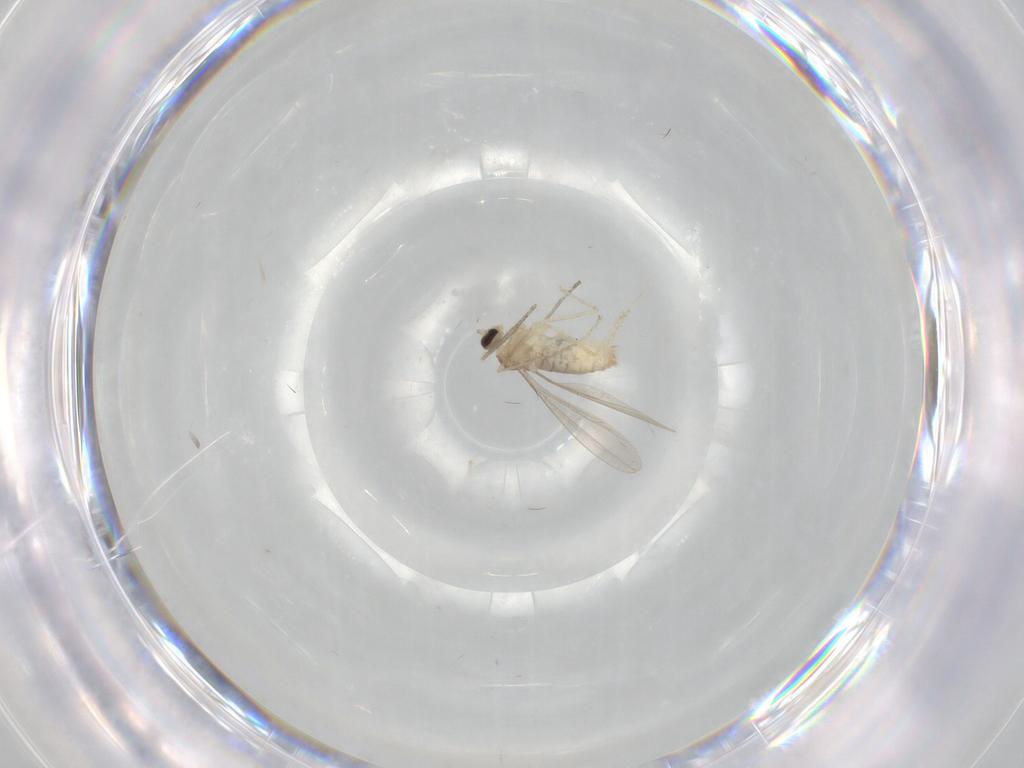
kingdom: Animalia
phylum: Arthropoda
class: Insecta
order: Diptera
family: Cecidomyiidae
